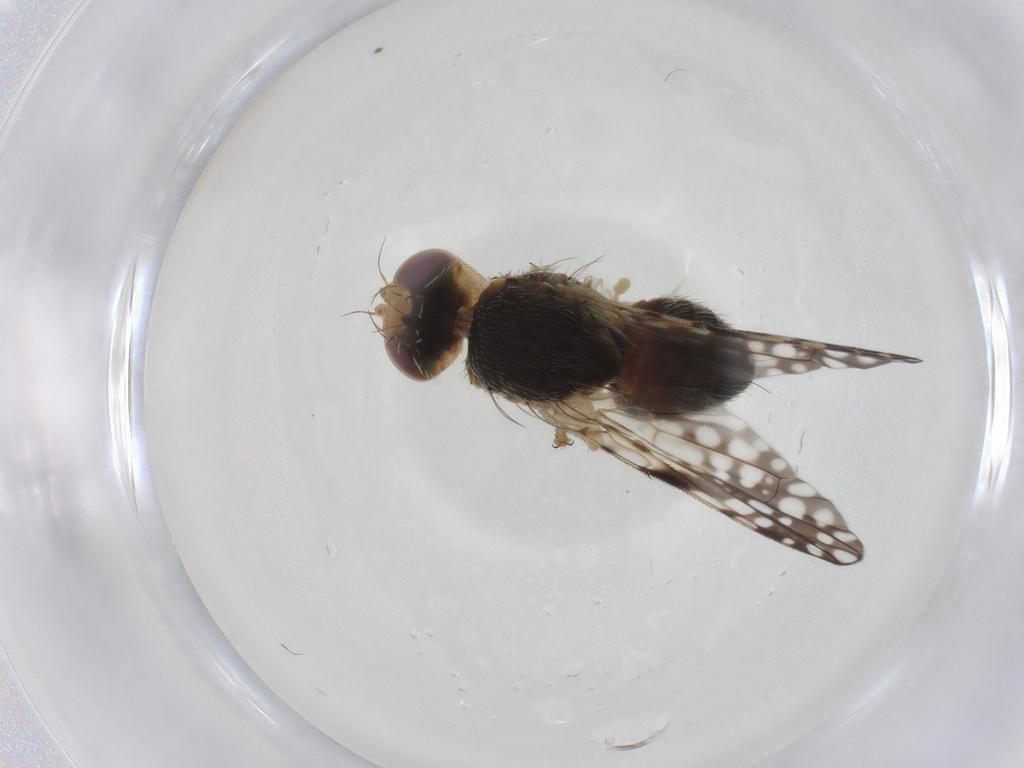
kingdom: Animalia
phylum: Arthropoda
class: Insecta
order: Diptera
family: Tephritidae
